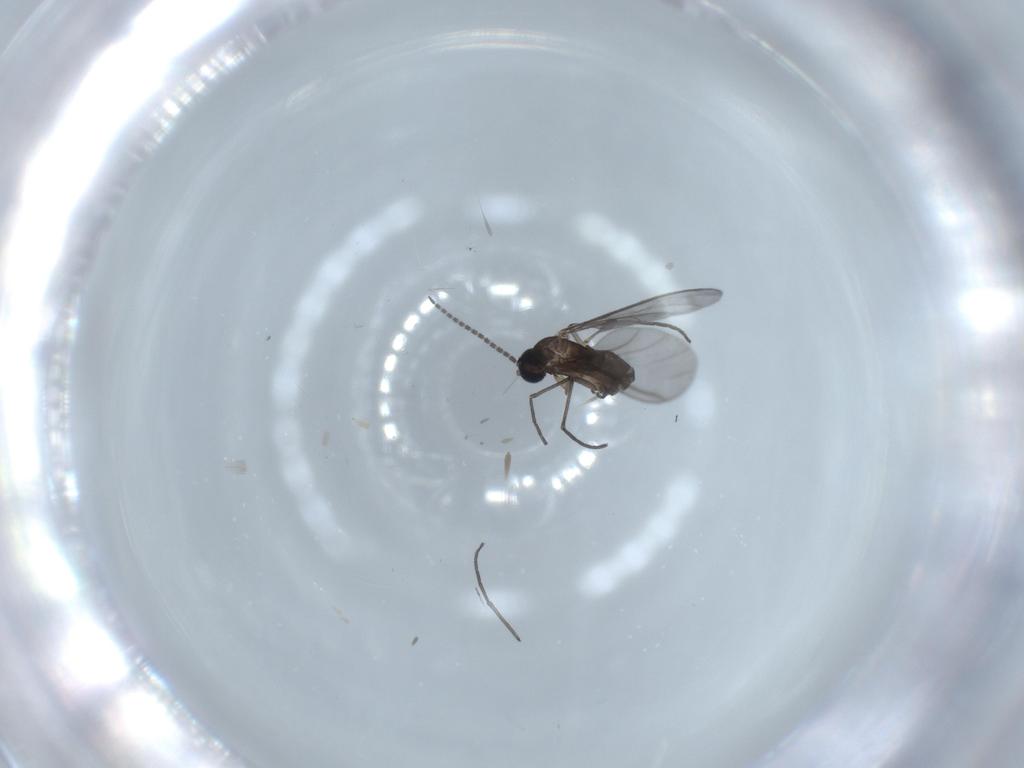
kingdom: Animalia
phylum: Arthropoda
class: Insecta
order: Diptera
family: Sciaridae
